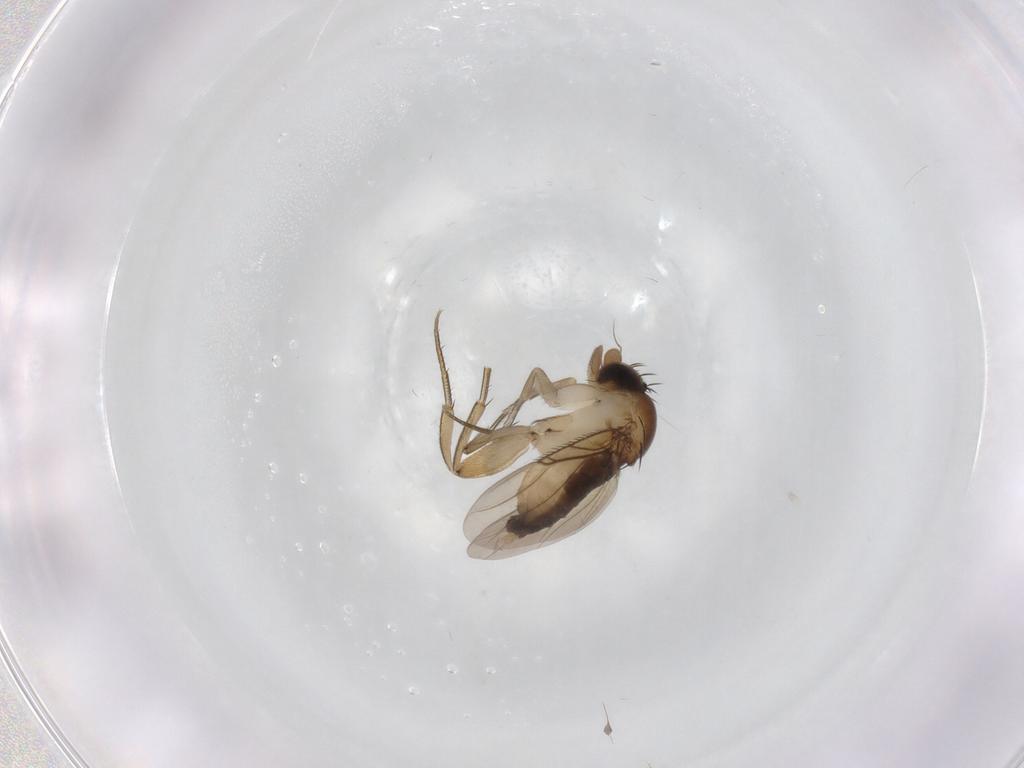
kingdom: Animalia
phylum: Arthropoda
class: Insecta
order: Diptera
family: Phoridae
